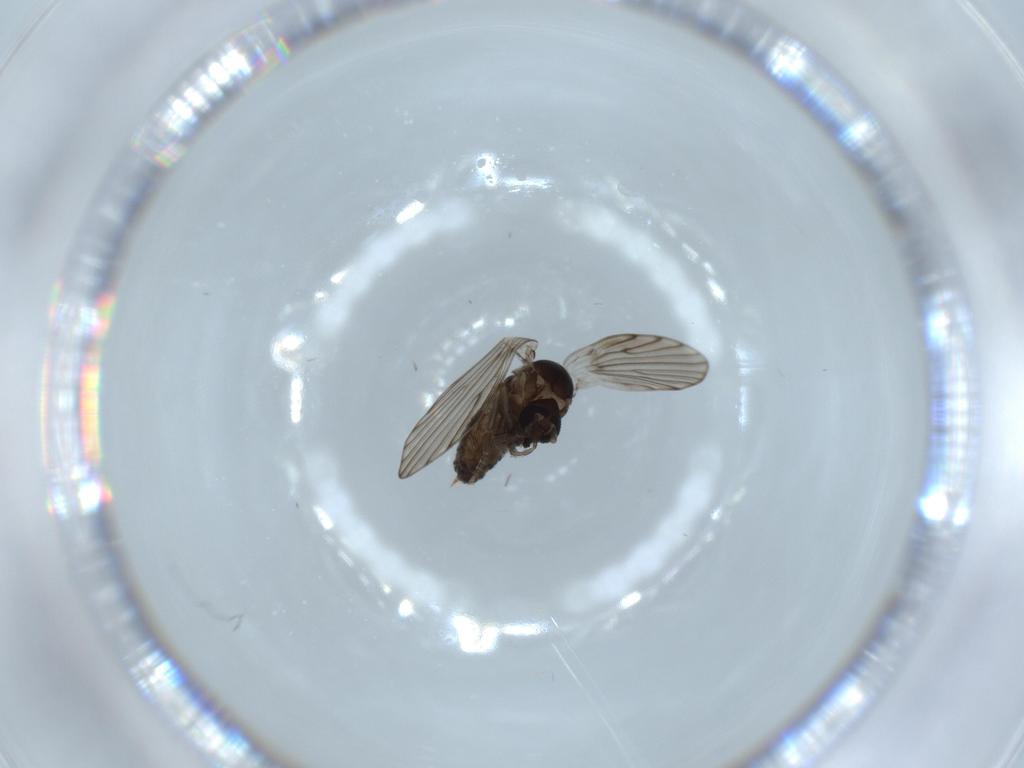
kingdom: Animalia
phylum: Arthropoda
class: Insecta
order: Diptera
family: Psychodidae
